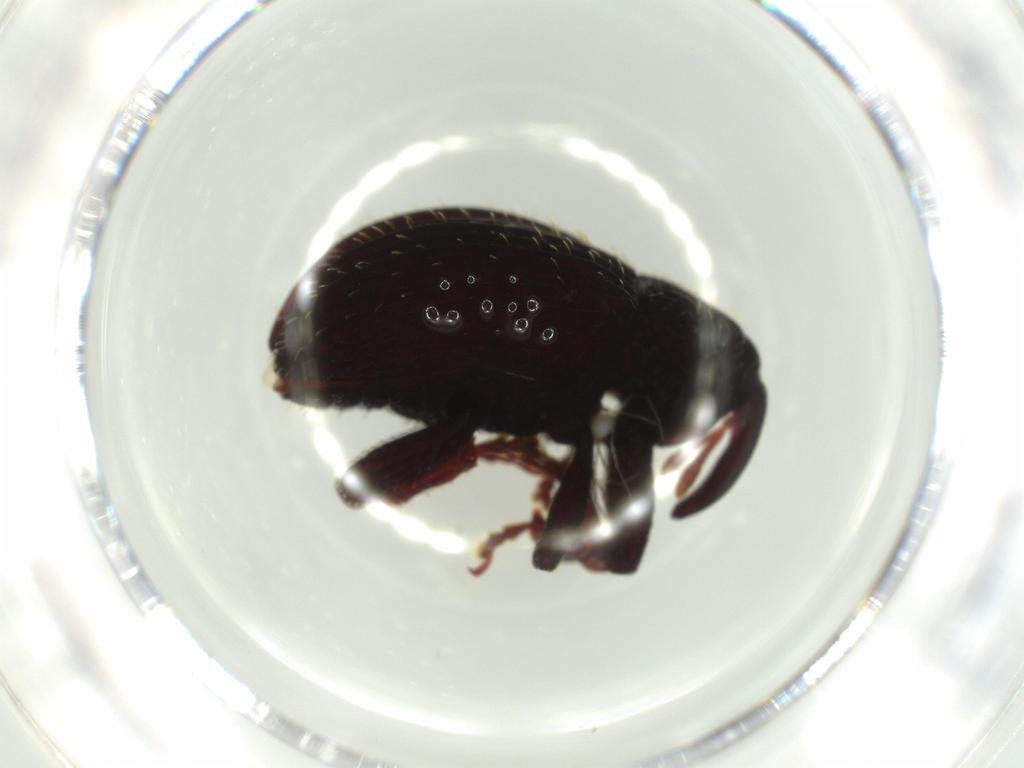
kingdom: Animalia
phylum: Arthropoda
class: Insecta
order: Coleoptera
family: Curculionidae
